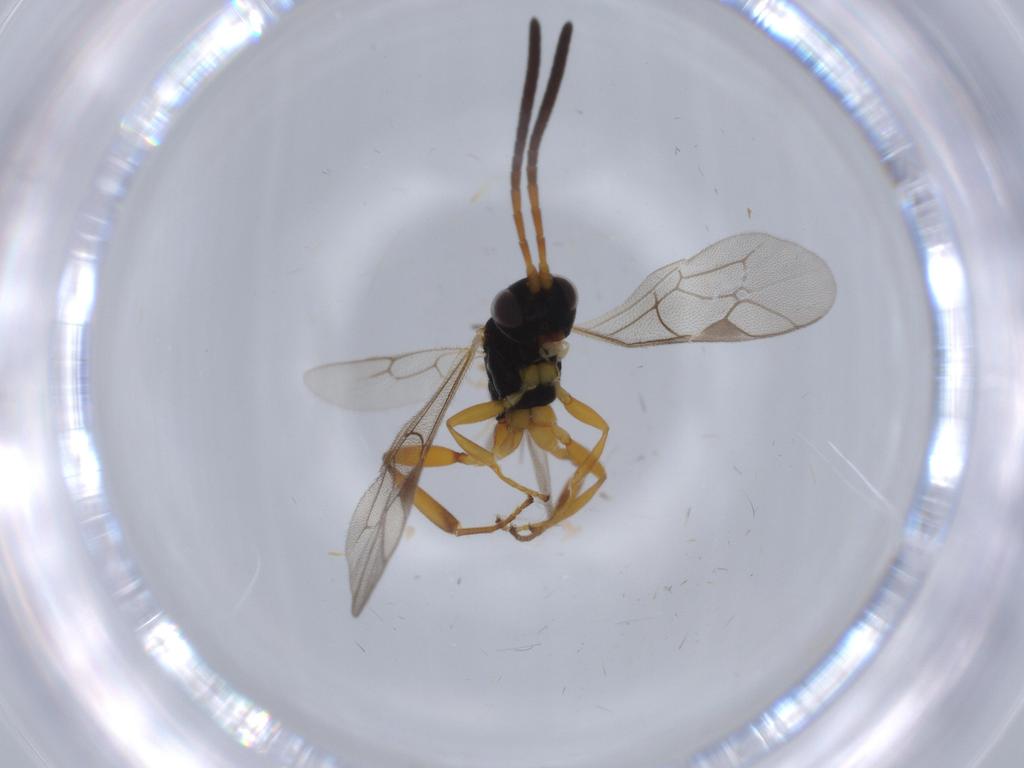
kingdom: Animalia
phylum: Arthropoda
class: Insecta
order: Hymenoptera
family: Ichneumonidae
